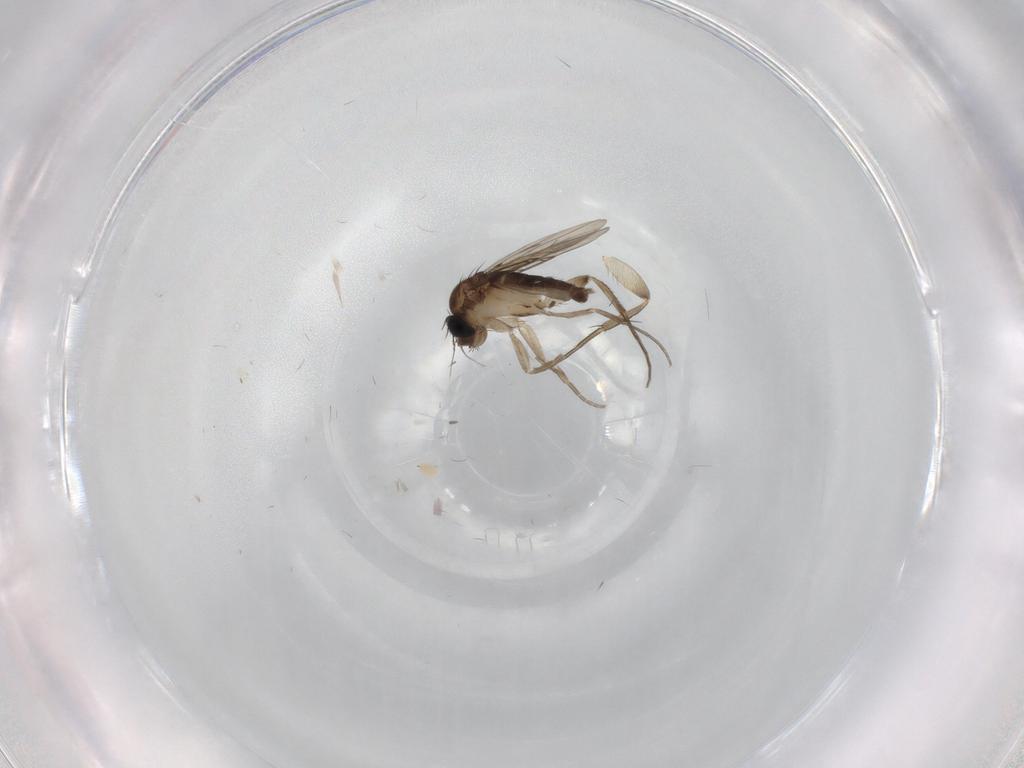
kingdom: Animalia
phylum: Arthropoda
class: Insecta
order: Diptera
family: Phoridae
